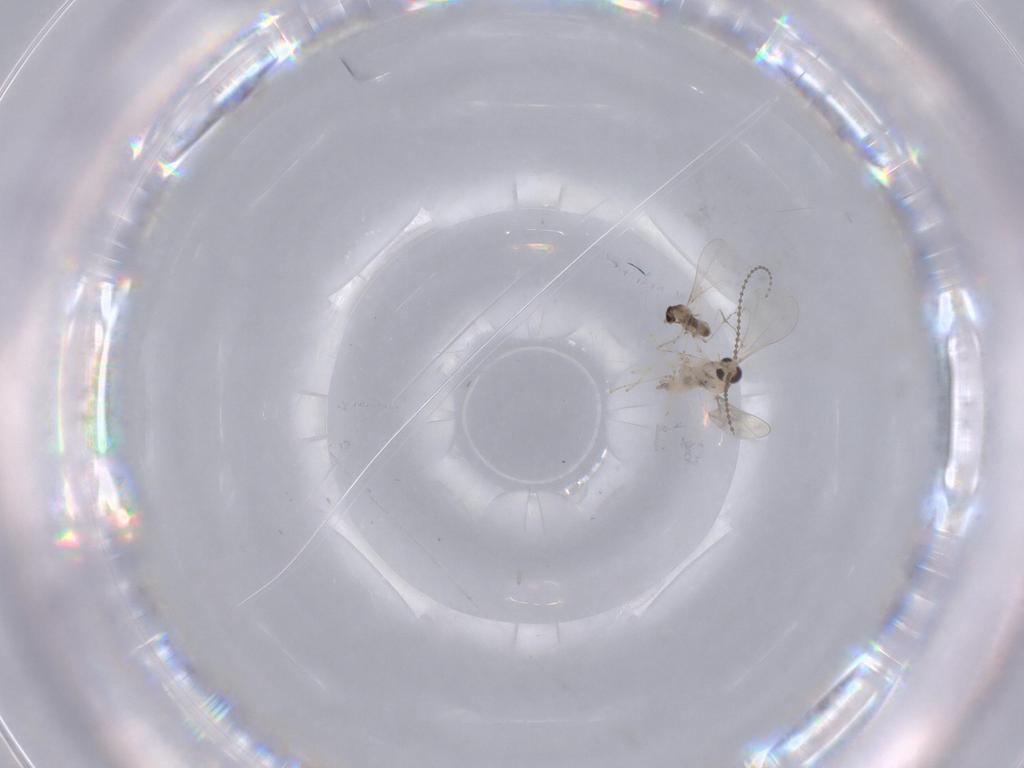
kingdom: Animalia
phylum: Arthropoda
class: Insecta
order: Diptera
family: Cecidomyiidae
